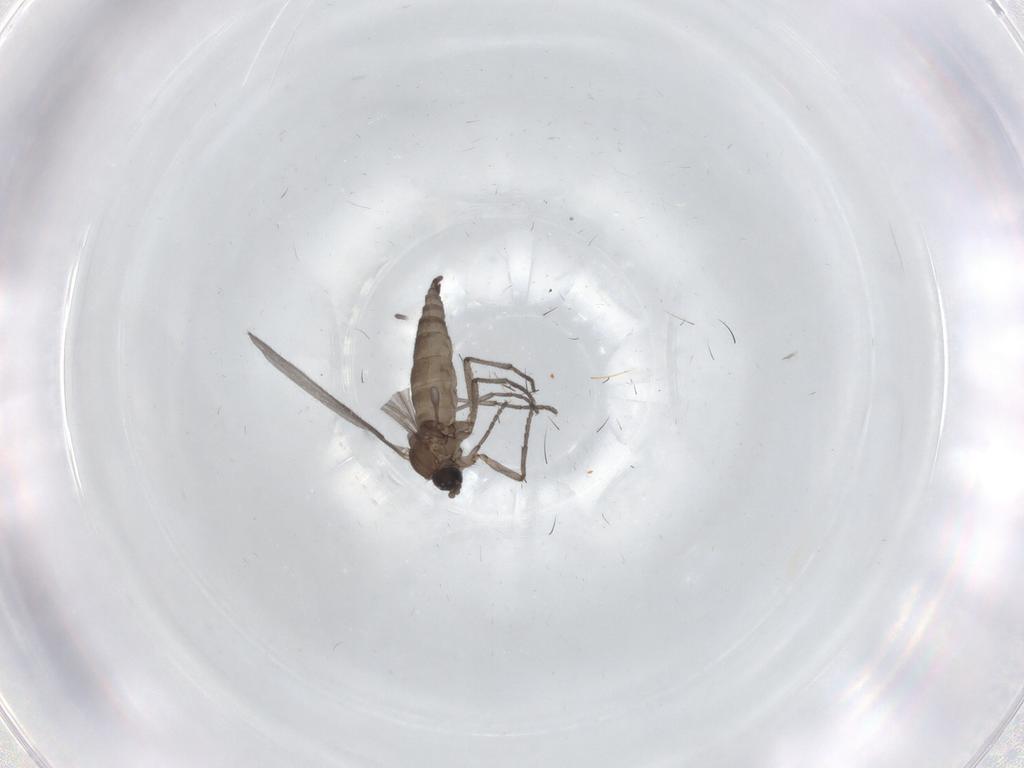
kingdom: Animalia
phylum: Arthropoda
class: Insecta
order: Diptera
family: Sciaridae
